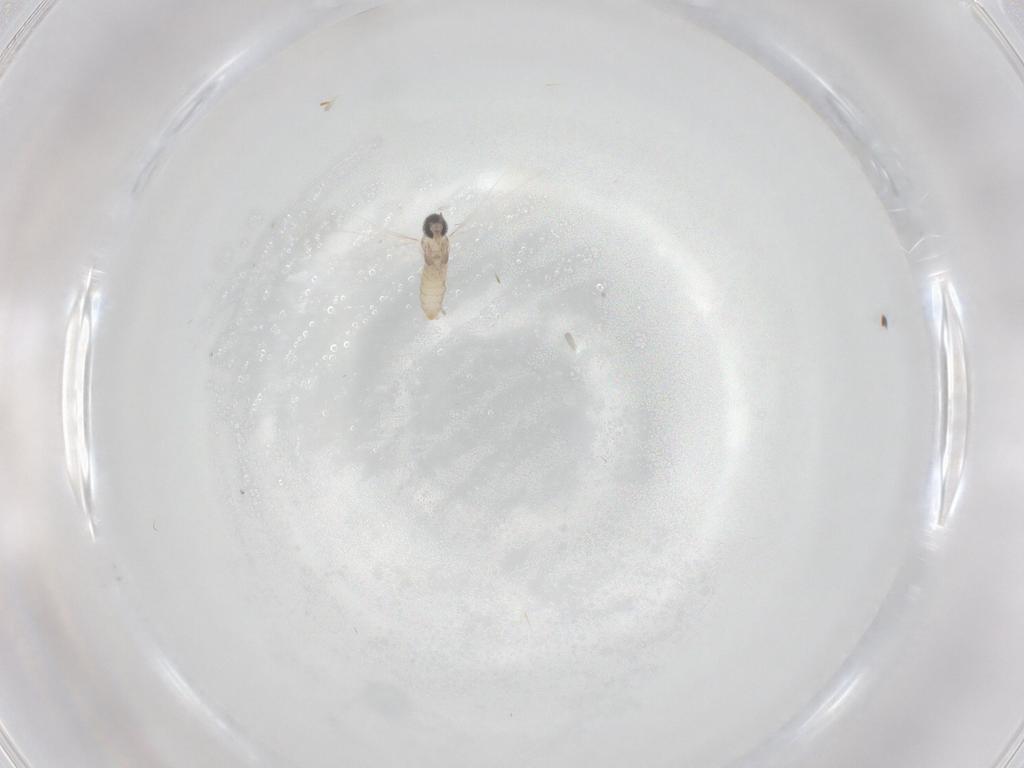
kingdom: Animalia
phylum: Arthropoda
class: Insecta
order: Diptera
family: Cecidomyiidae
